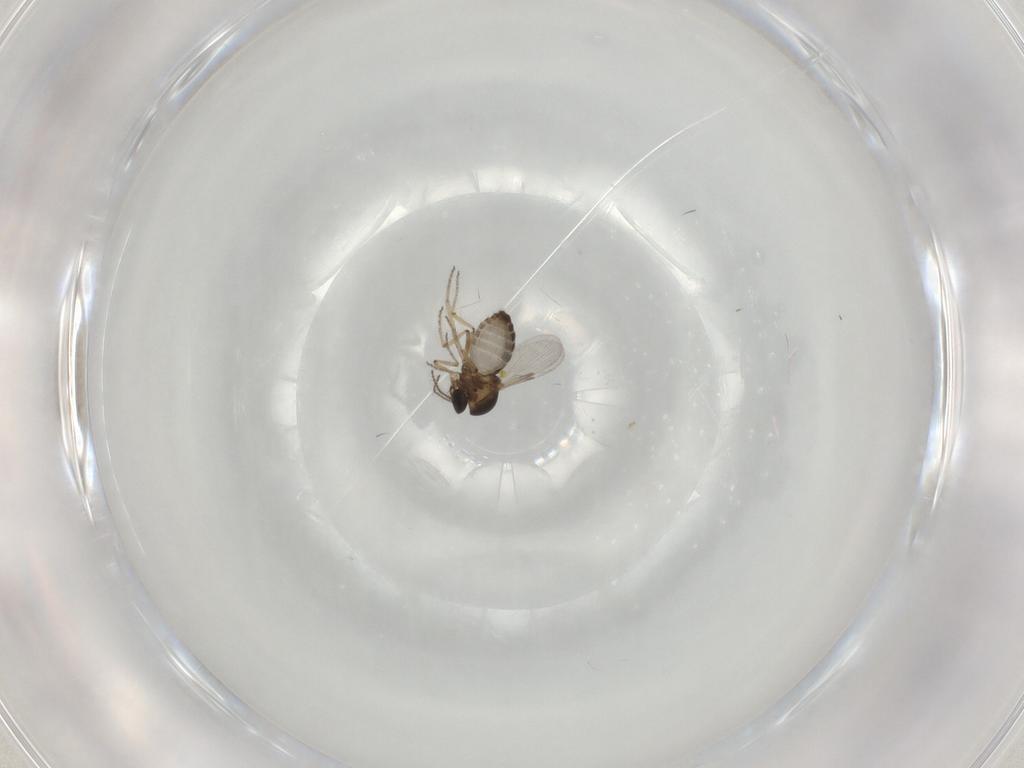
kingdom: Animalia
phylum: Arthropoda
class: Insecta
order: Diptera
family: Ceratopogonidae
